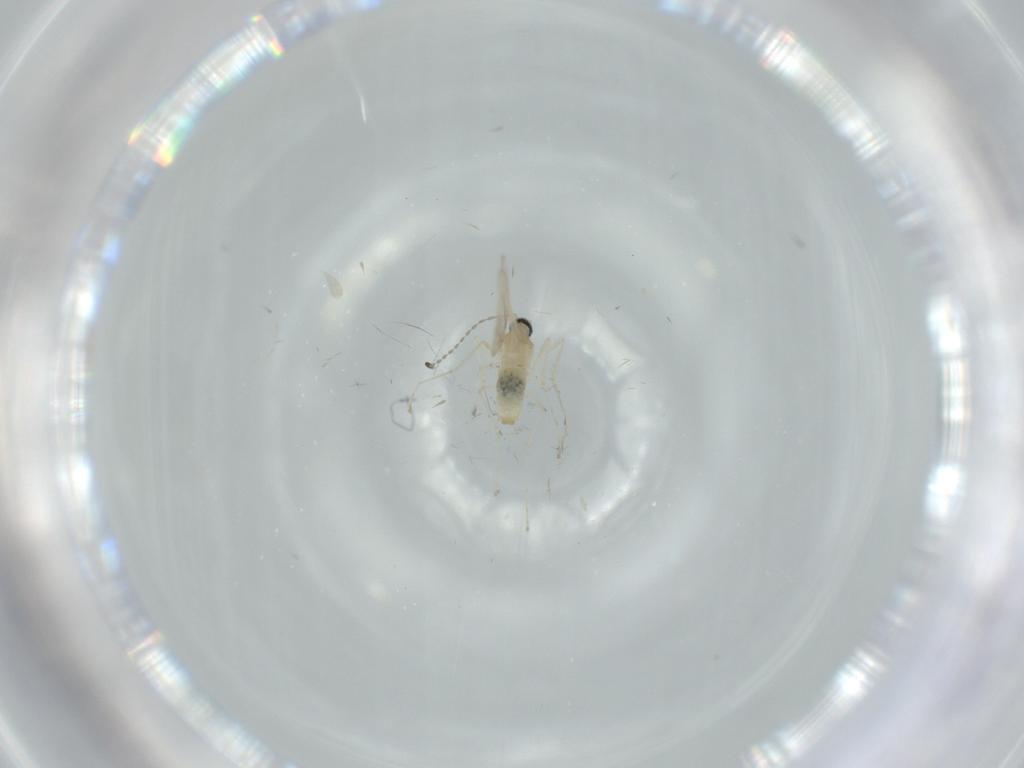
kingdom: Animalia
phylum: Arthropoda
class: Insecta
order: Diptera
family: Cecidomyiidae
